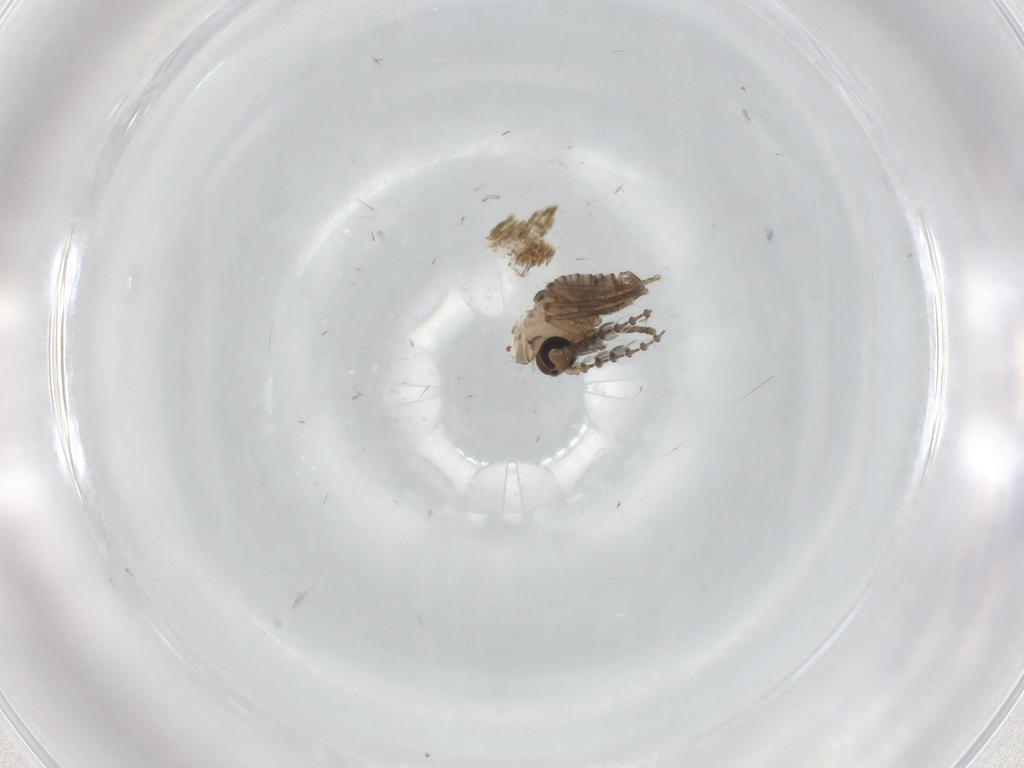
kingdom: Animalia
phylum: Arthropoda
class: Insecta
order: Diptera
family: Psychodidae
